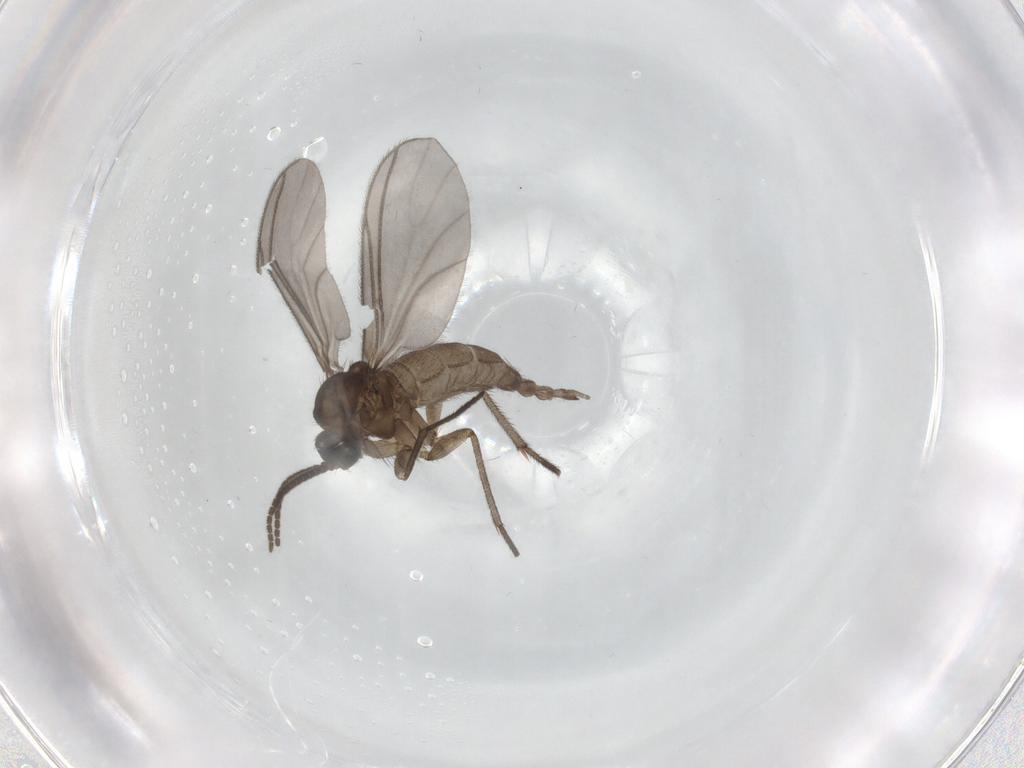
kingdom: Animalia
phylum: Arthropoda
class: Insecta
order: Diptera
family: Sciaridae
